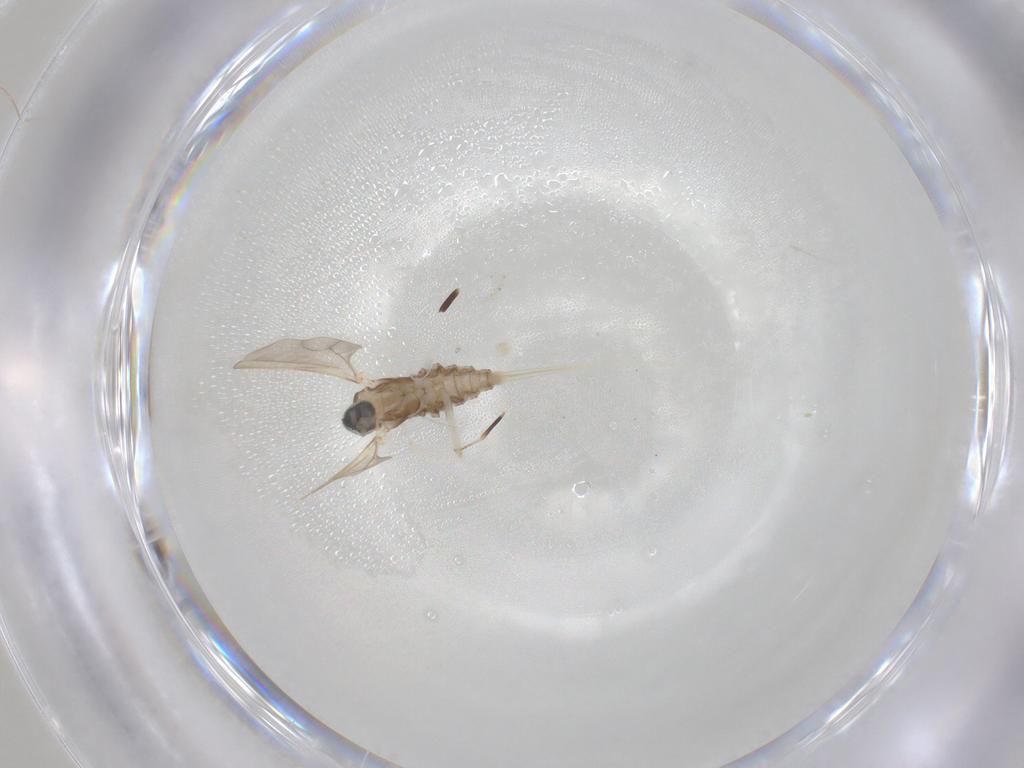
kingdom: Animalia
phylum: Arthropoda
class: Insecta
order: Diptera
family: Cecidomyiidae
